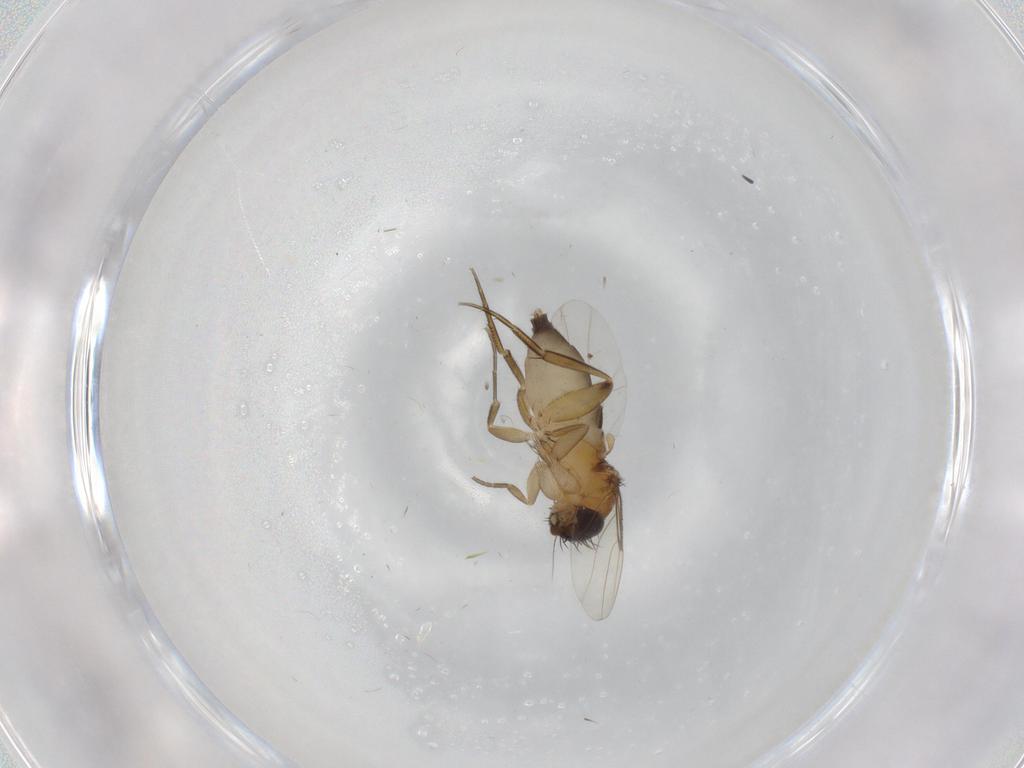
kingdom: Animalia
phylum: Arthropoda
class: Insecta
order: Diptera
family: Phoridae
